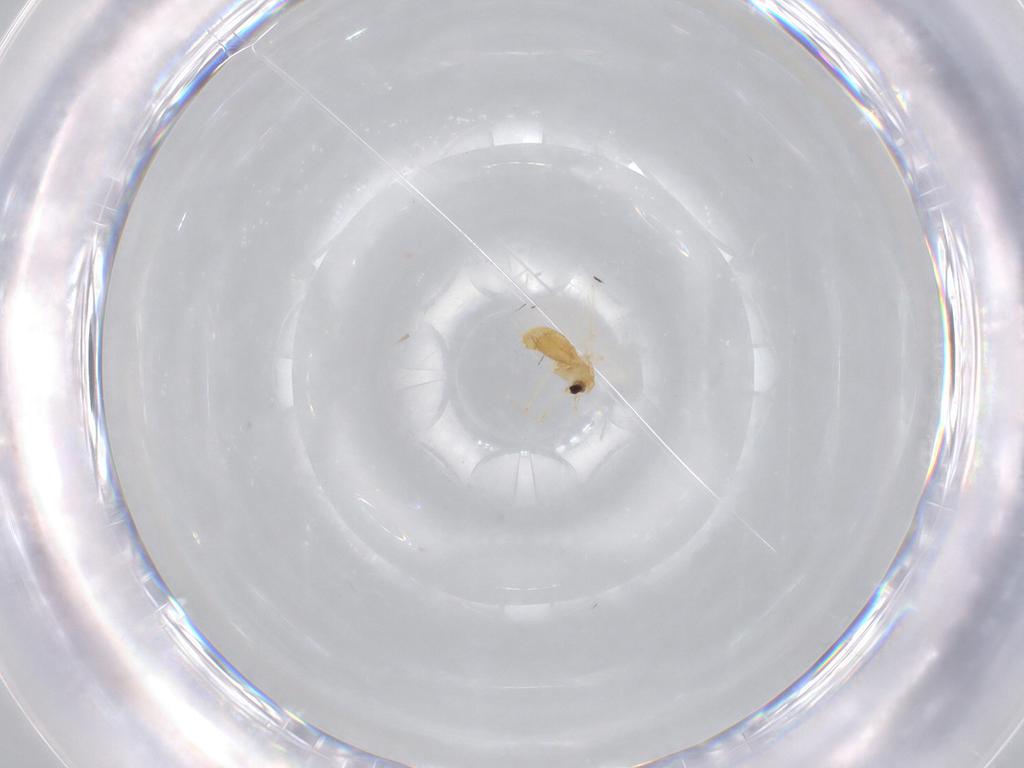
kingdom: Animalia
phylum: Arthropoda
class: Insecta
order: Diptera
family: Chironomidae
